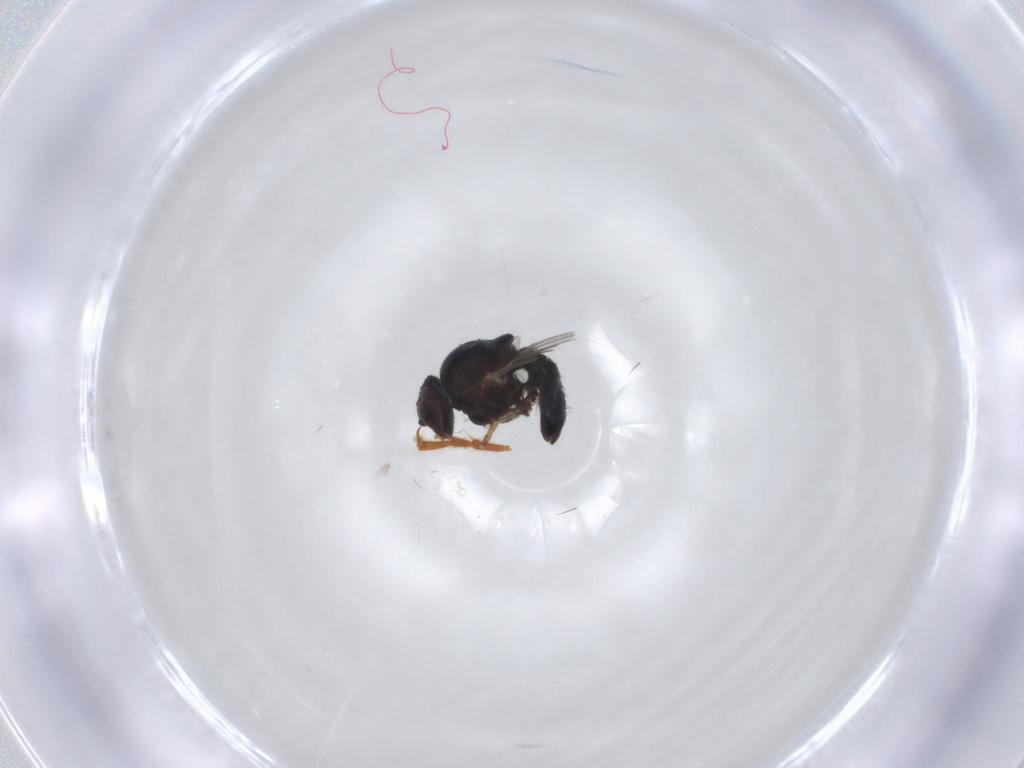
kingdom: Animalia
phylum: Arthropoda
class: Insecta
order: Diptera
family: Muscidae
